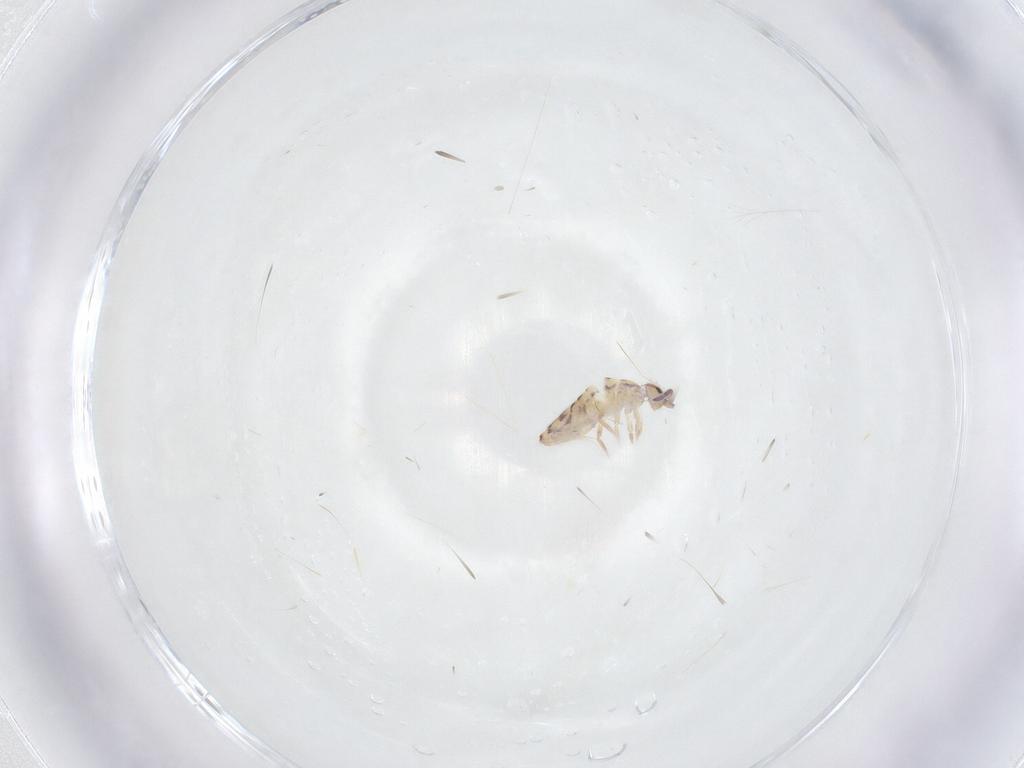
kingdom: Animalia
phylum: Arthropoda
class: Collembola
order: Entomobryomorpha
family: Entomobryidae
